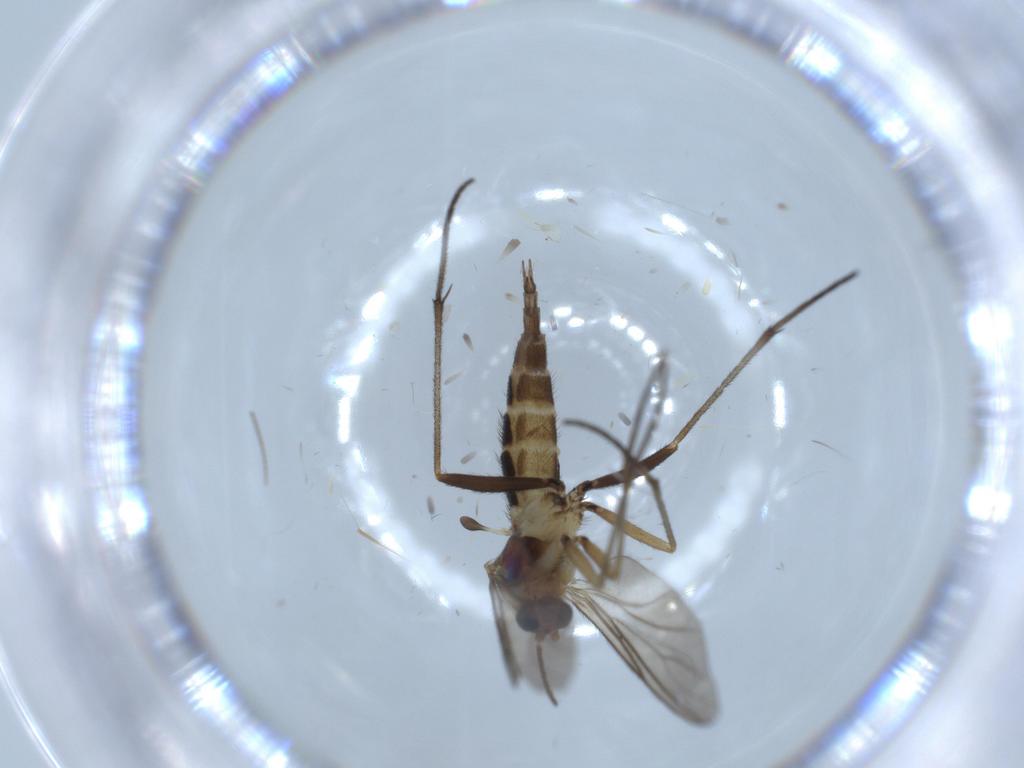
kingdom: Animalia
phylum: Arthropoda
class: Insecta
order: Diptera
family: Sciaridae
